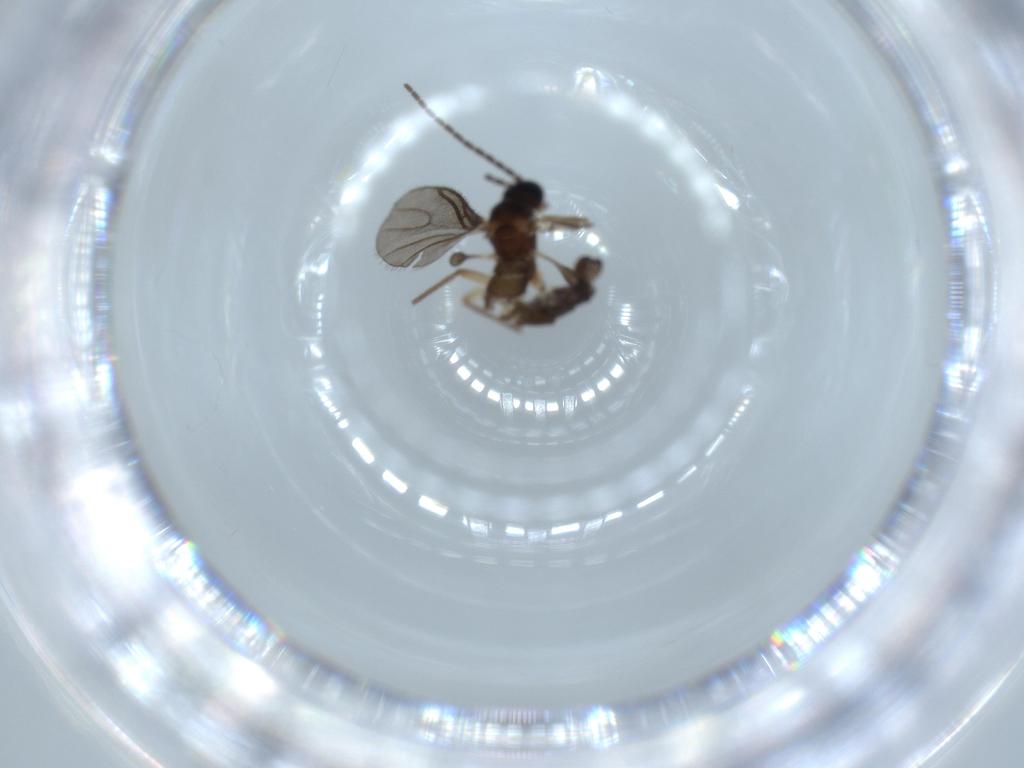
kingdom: Animalia
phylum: Arthropoda
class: Insecta
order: Diptera
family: Sciaridae
